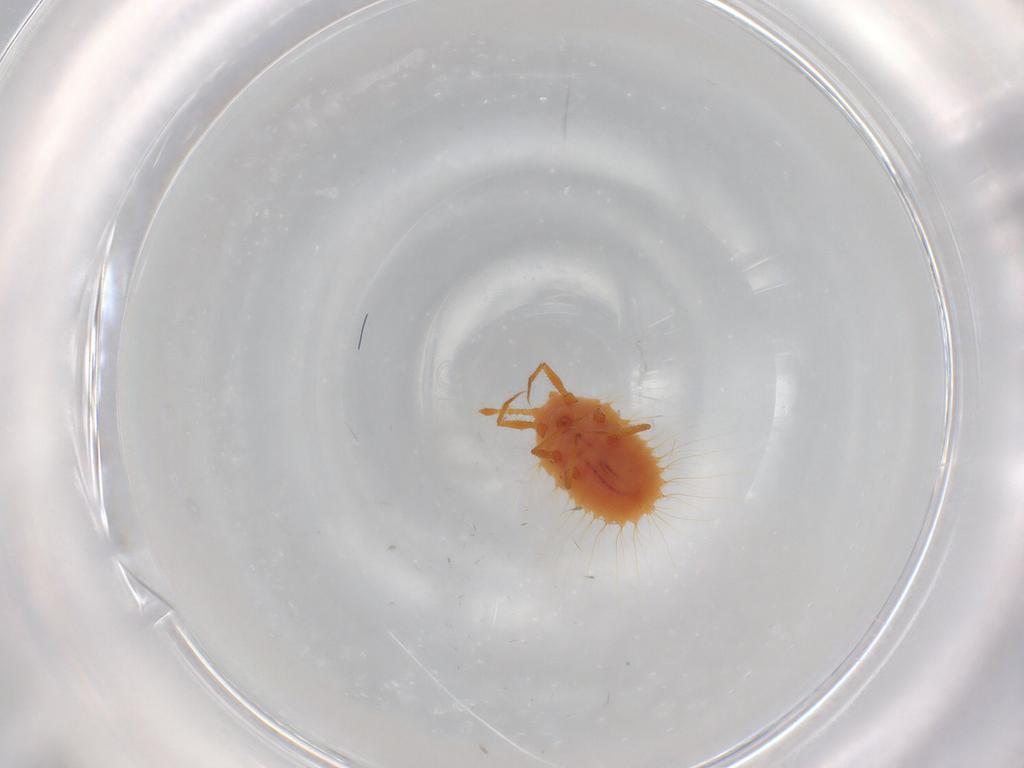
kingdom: Animalia
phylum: Arthropoda
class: Insecta
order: Hemiptera
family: Coccoidea_incertae_sedis
